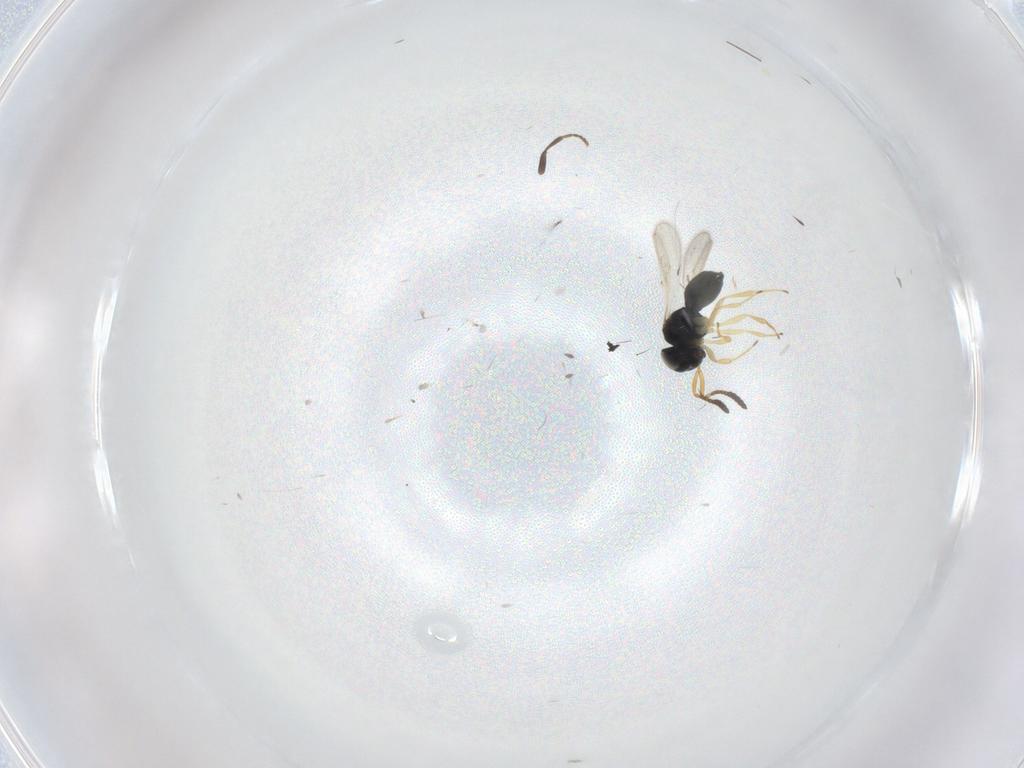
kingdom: Animalia
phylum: Arthropoda
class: Insecta
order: Hymenoptera
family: Scelionidae
